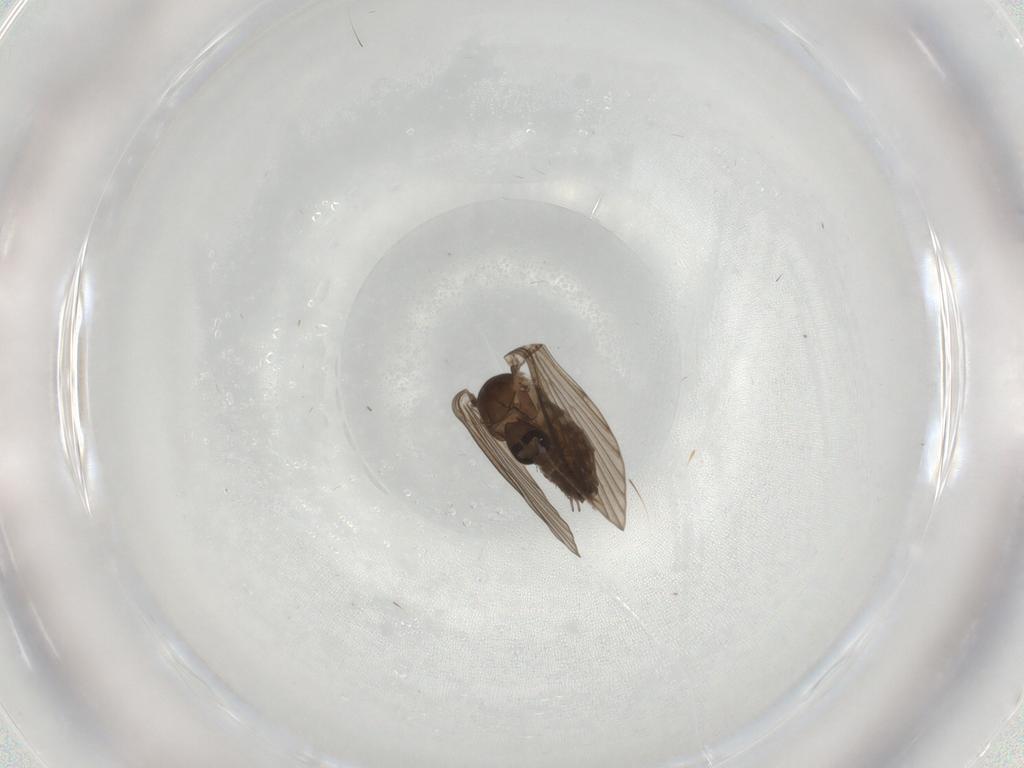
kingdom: Animalia
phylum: Arthropoda
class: Insecta
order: Diptera
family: Psychodidae
